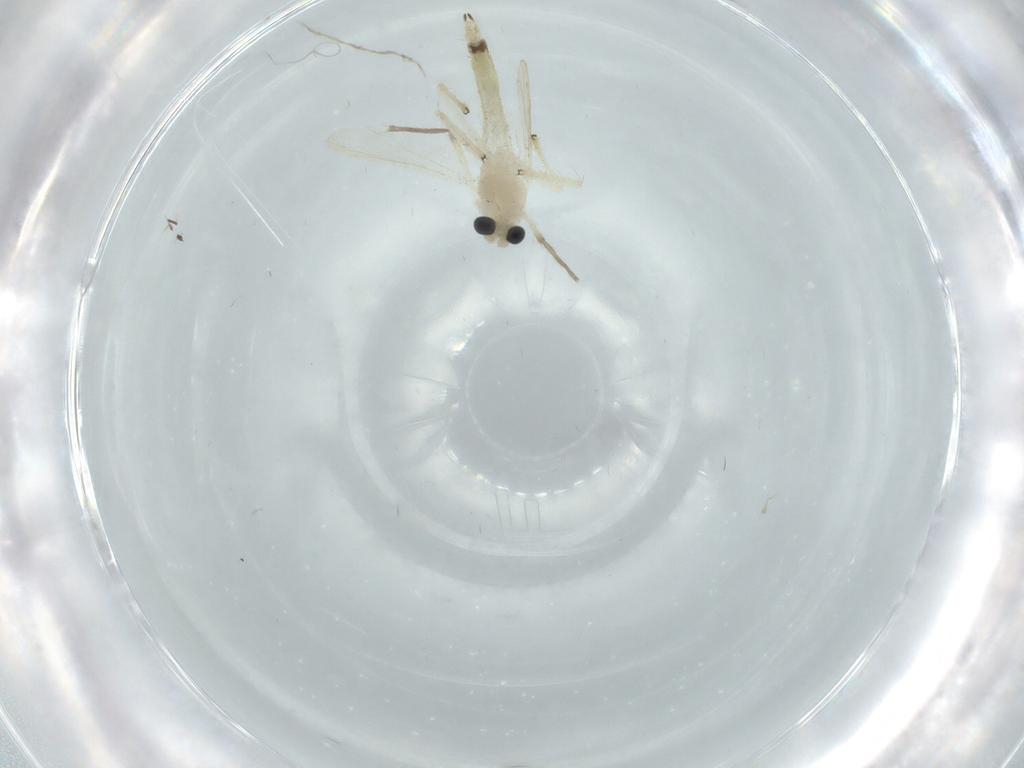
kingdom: Animalia
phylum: Arthropoda
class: Insecta
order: Diptera
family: Chironomidae
